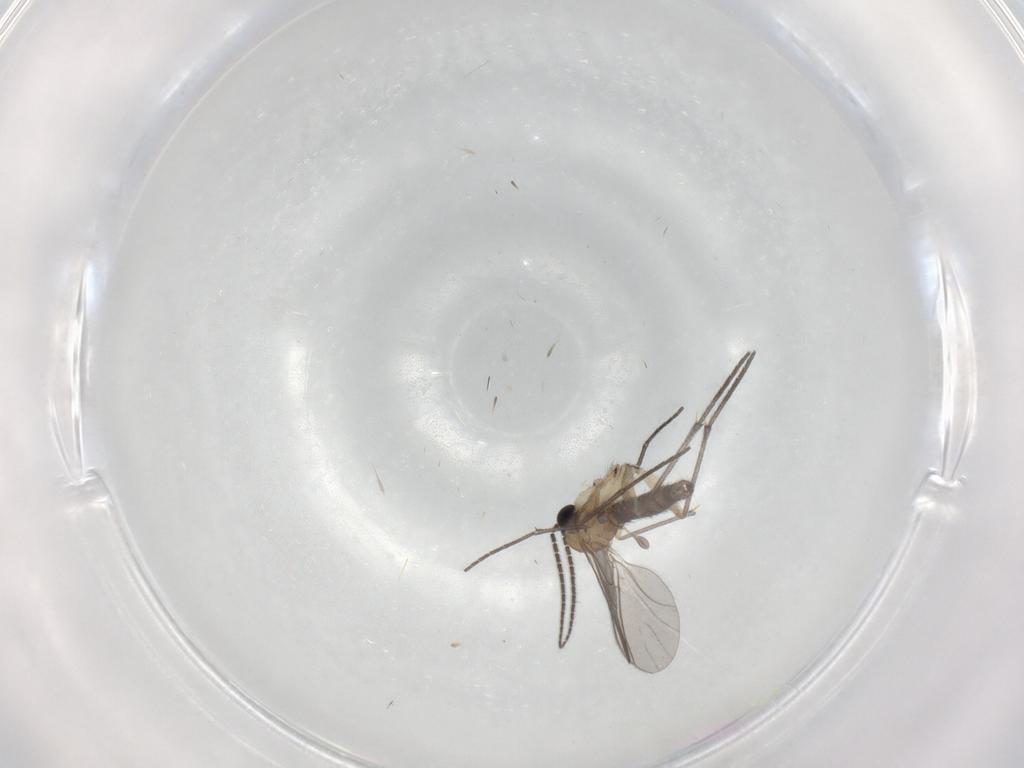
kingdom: Animalia
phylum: Arthropoda
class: Insecta
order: Diptera
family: Sciaridae
